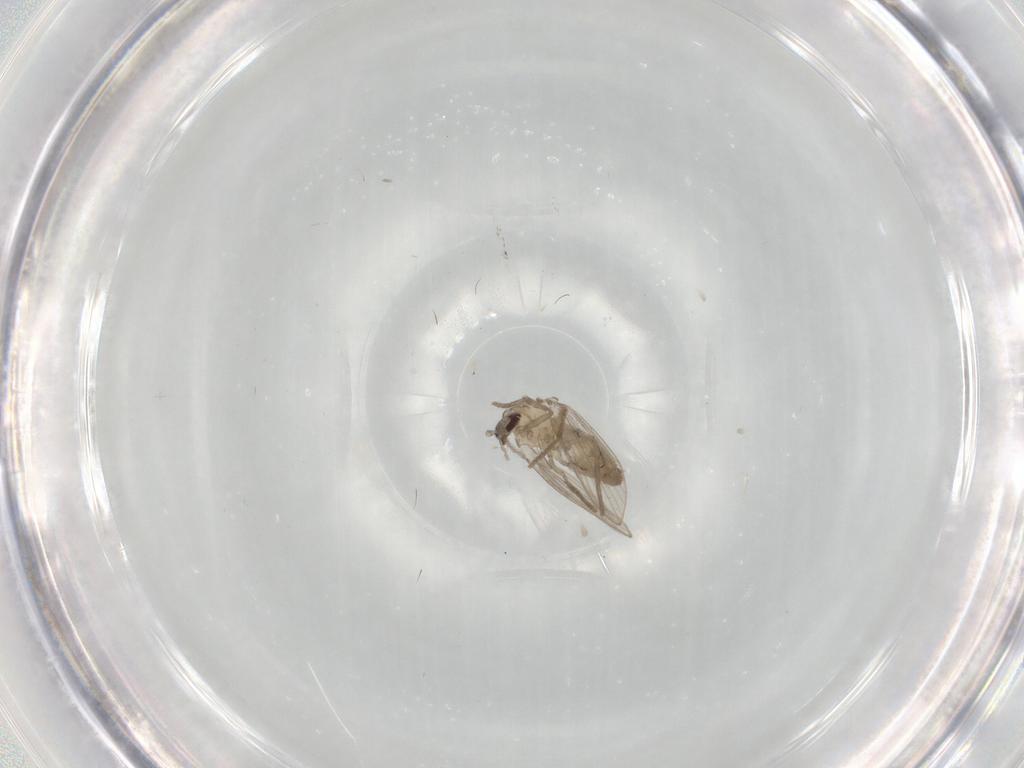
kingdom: Animalia
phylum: Arthropoda
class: Insecta
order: Diptera
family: Psychodidae
